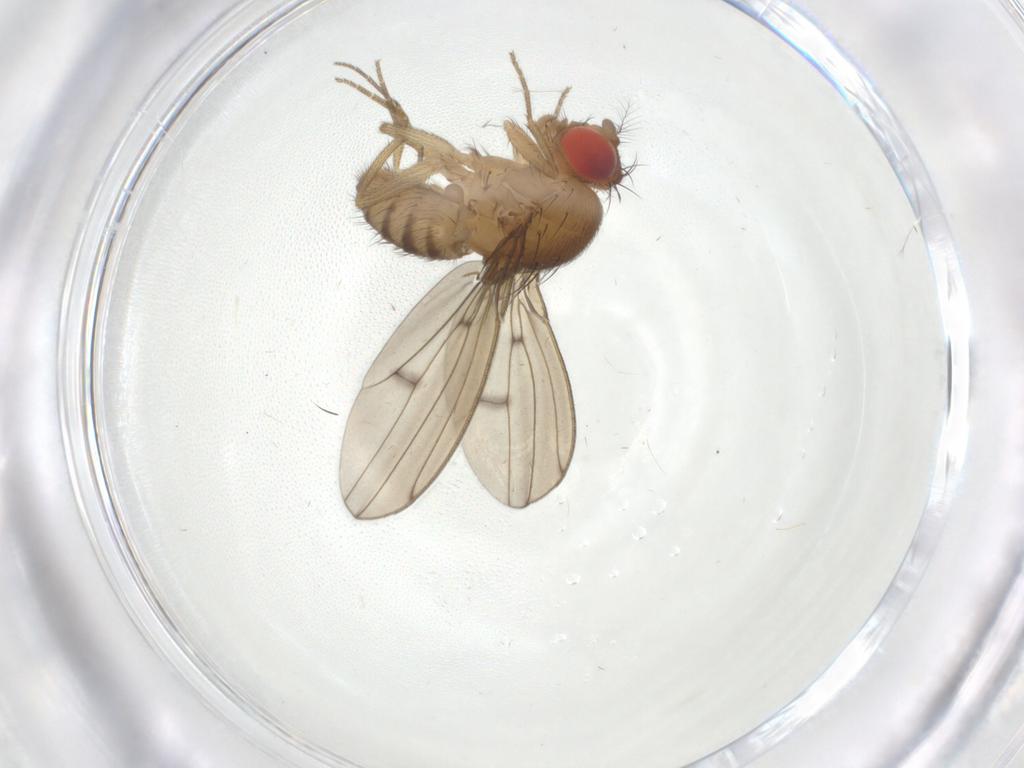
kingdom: Animalia
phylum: Arthropoda
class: Insecta
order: Diptera
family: Drosophilidae
